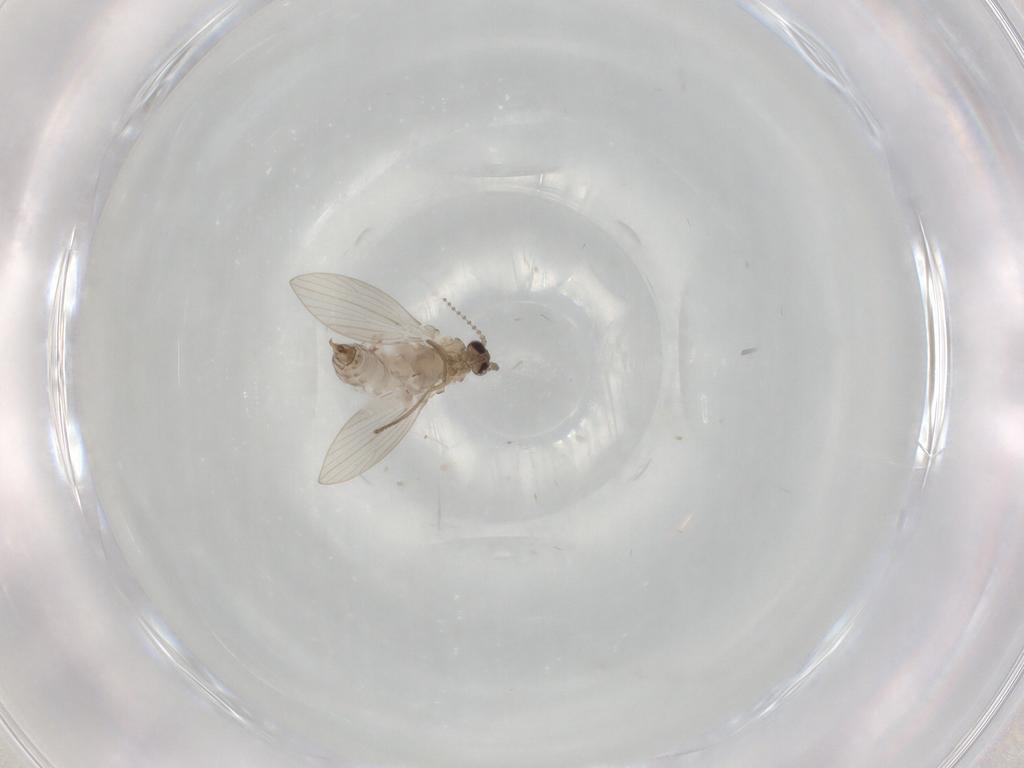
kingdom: Animalia
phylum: Arthropoda
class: Insecta
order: Diptera
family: Psychodidae
